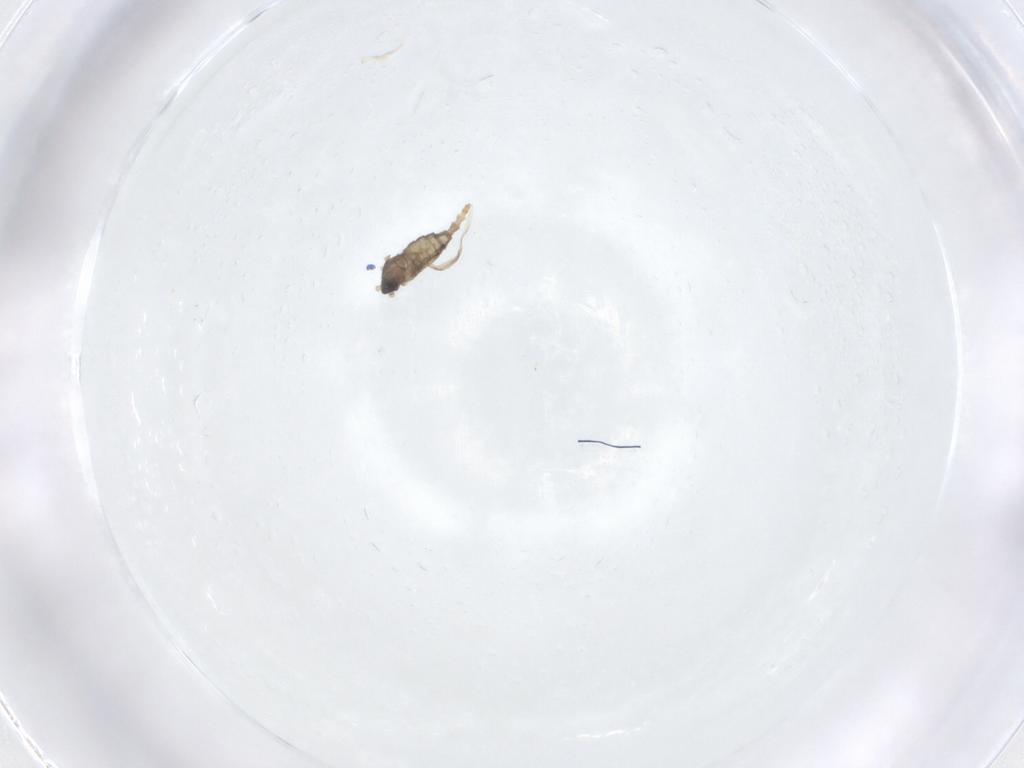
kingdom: Animalia
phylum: Arthropoda
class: Insecta
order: Diptera
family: Cecidomyiidae
